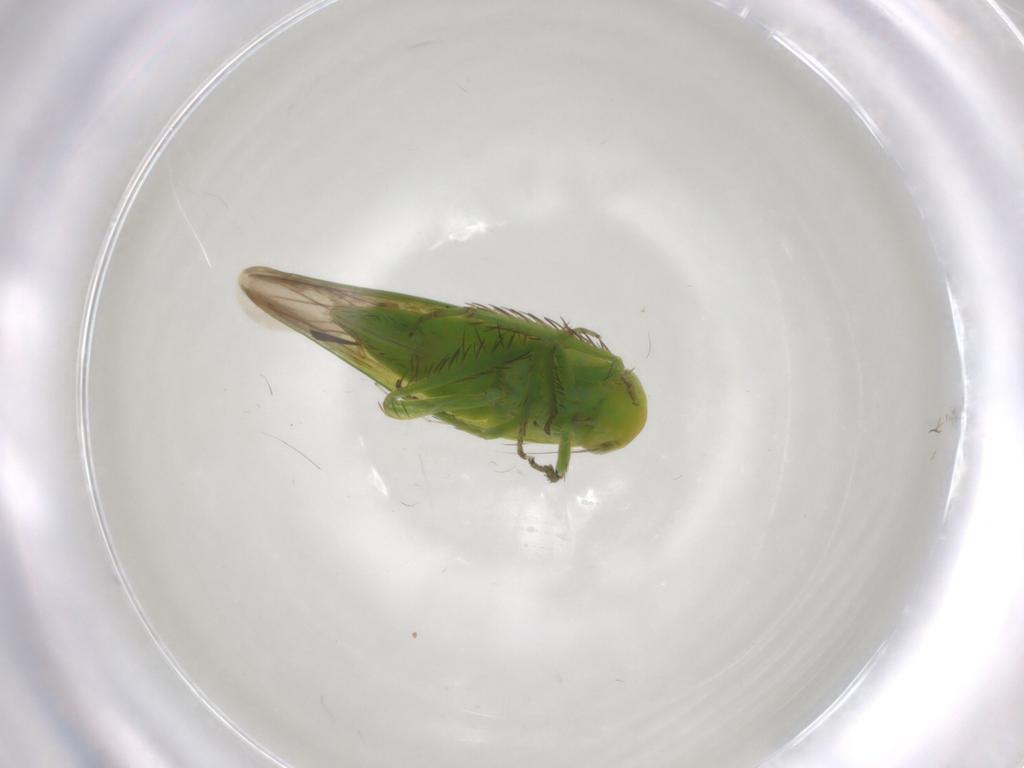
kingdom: Animalia
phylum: Arthropoda
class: Insecta
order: Hemiptera
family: Cicadellidae
